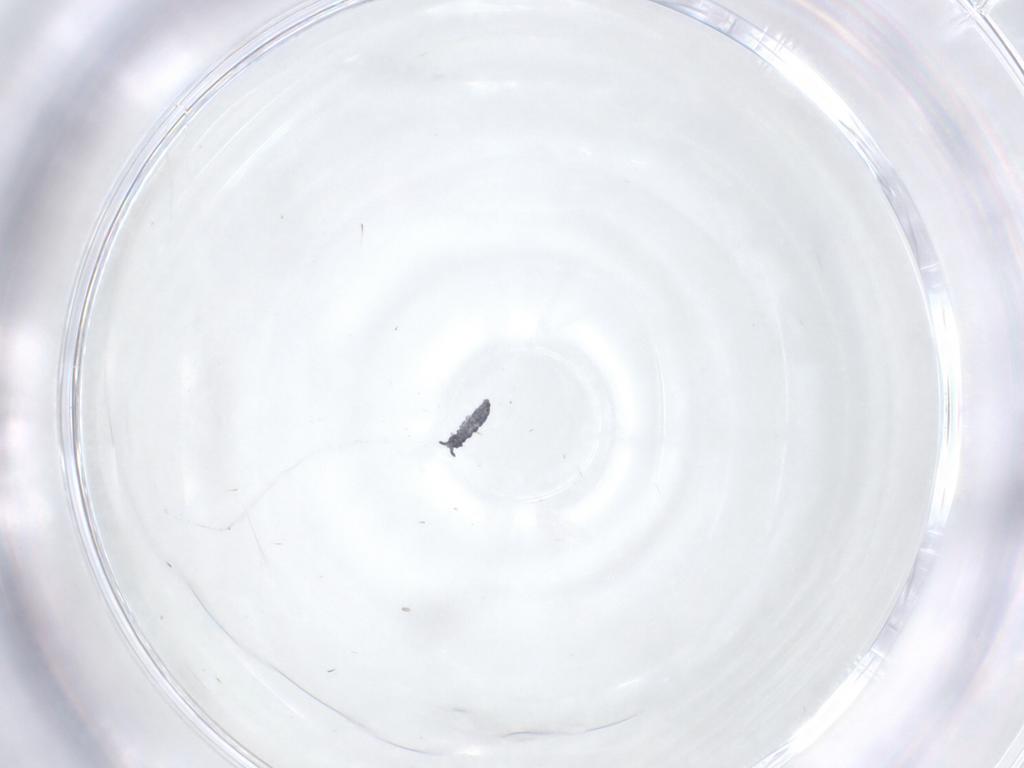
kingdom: Animalia
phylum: Arthropoda
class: Collembola
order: Poduromorpha
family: Hypogastruridae
